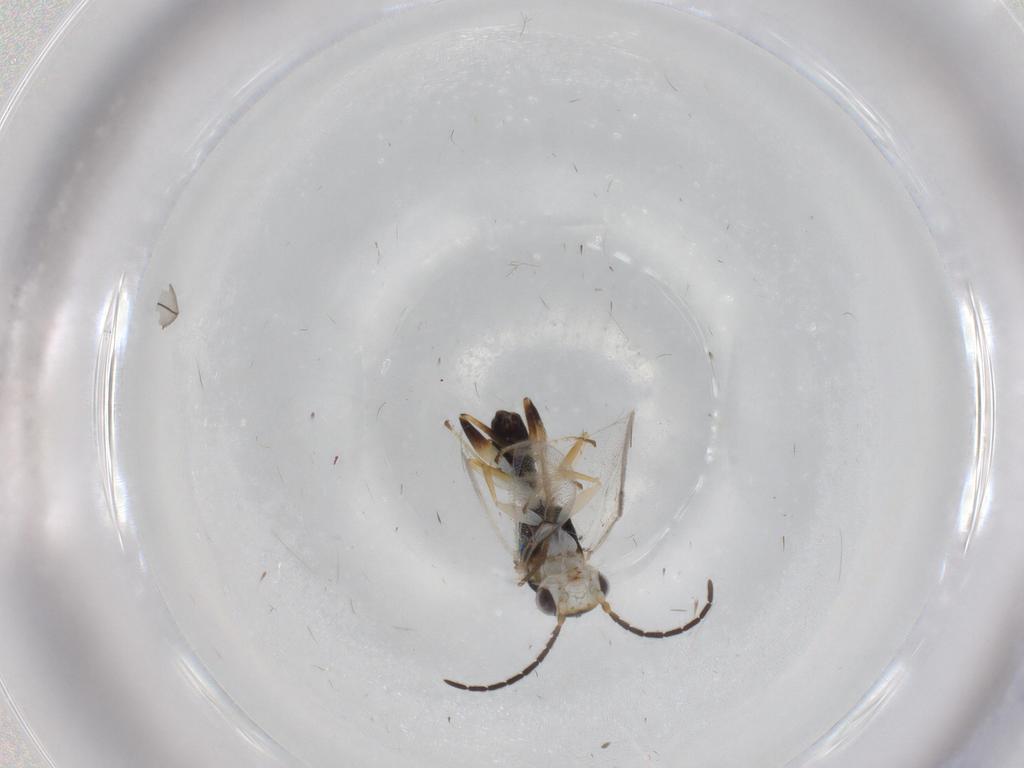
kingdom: Animalia
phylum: Arthropoda
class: Insecta
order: Hymenoptera
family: Dryinidae
